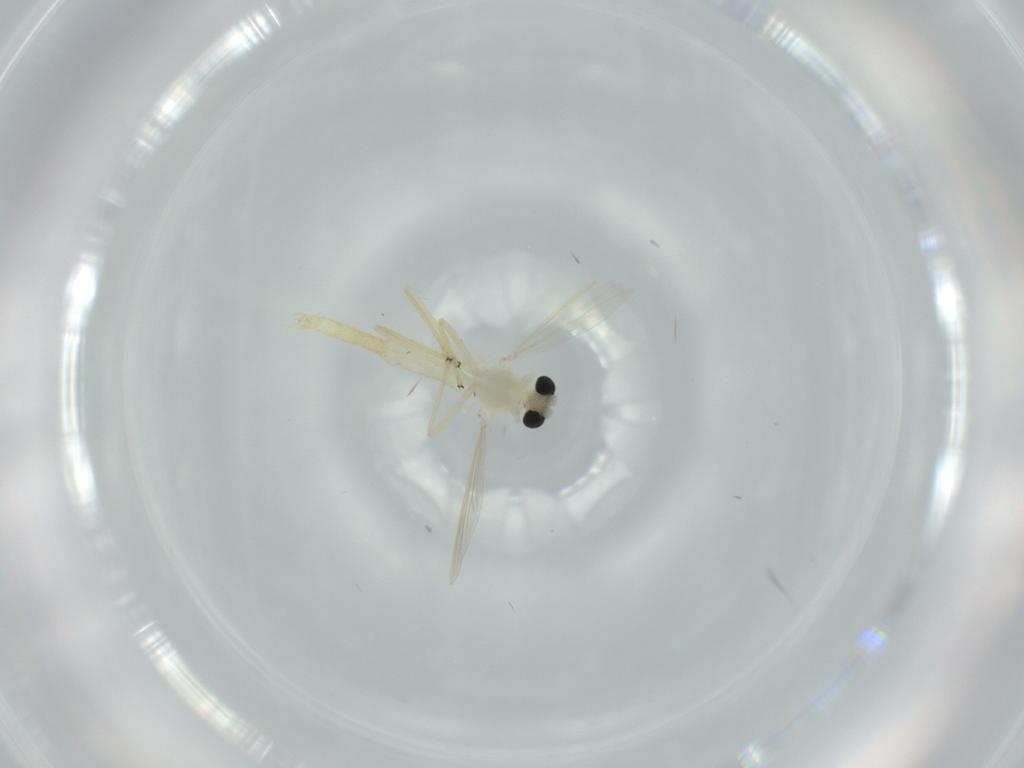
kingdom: Animalia
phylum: Arthropoda
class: Insecta
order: Diptera
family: Chironomidae
